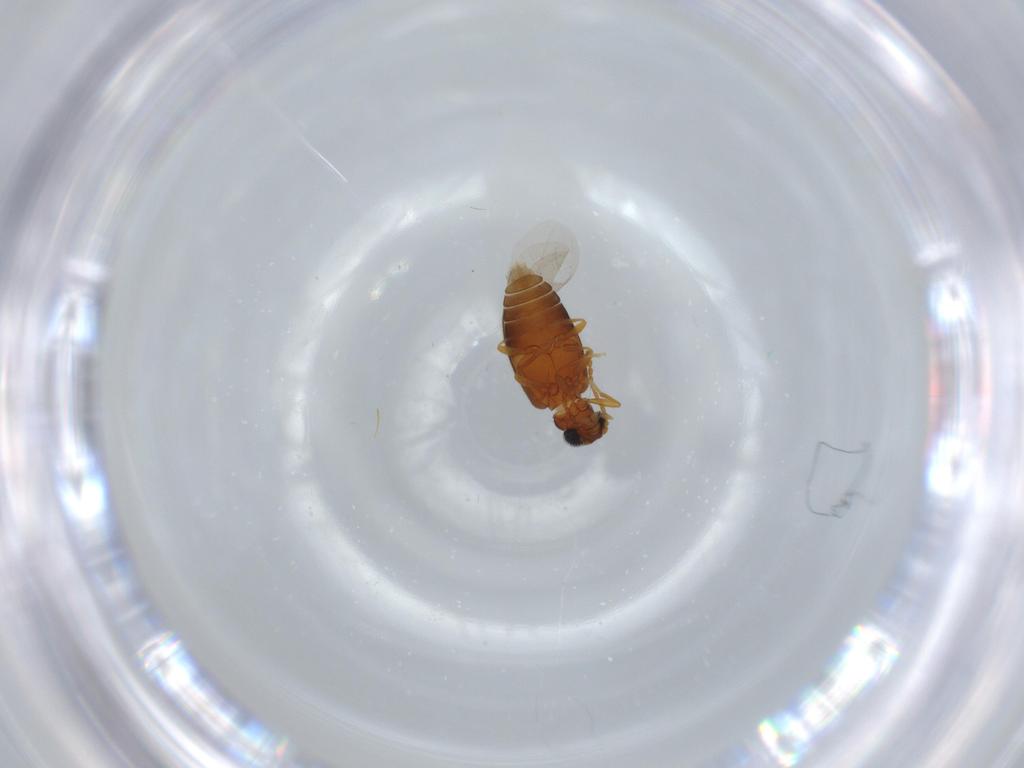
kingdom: Animalia
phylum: Arthropoda
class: Insecta
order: Coleoptera
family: Aderidae
